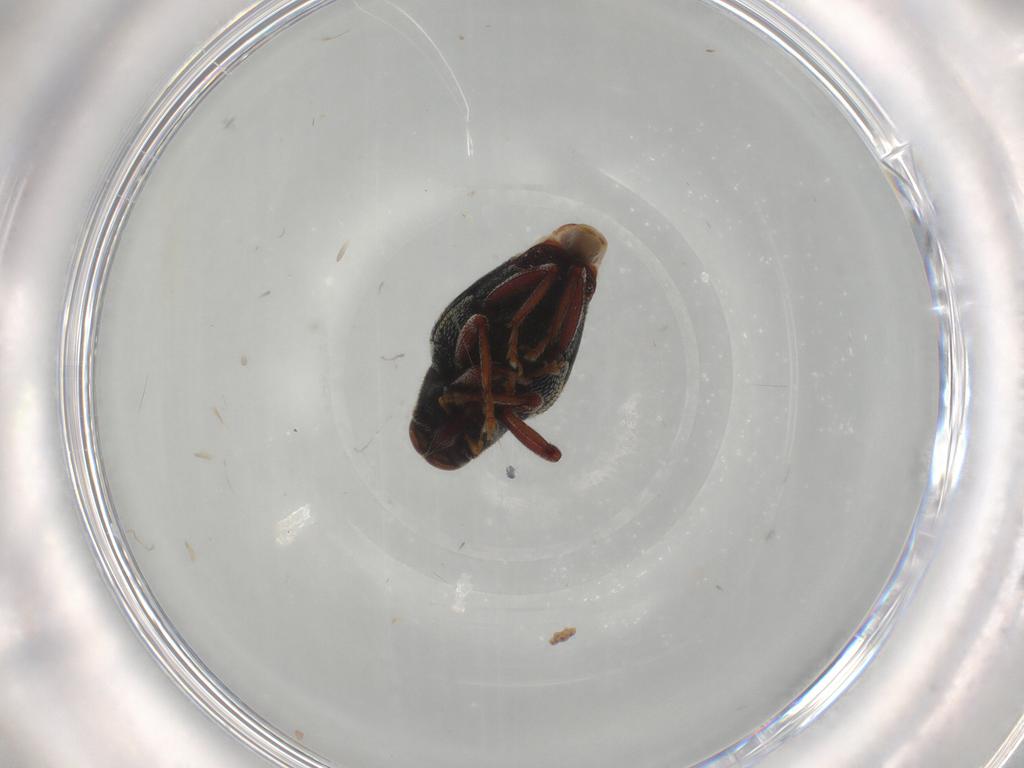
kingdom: Animalia
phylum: Arthropoda
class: Insecta
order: Coleoptera
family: Curculionidae
